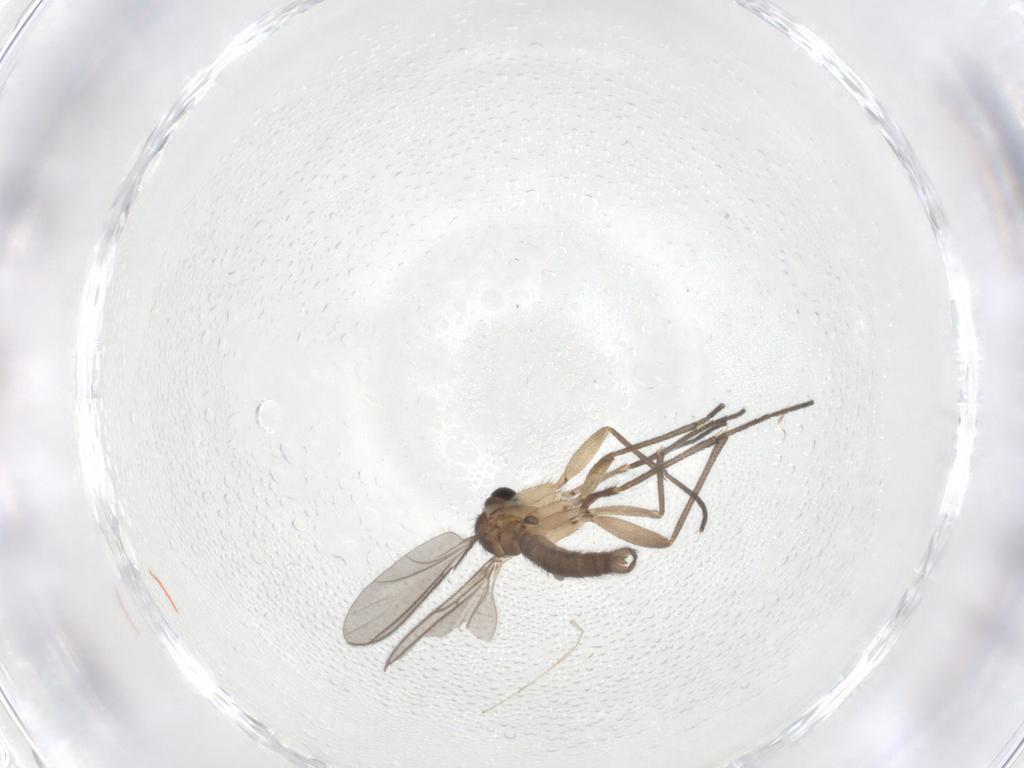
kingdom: Animalia
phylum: Arthropoda
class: Insecta
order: Diptera
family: Sciaridae
